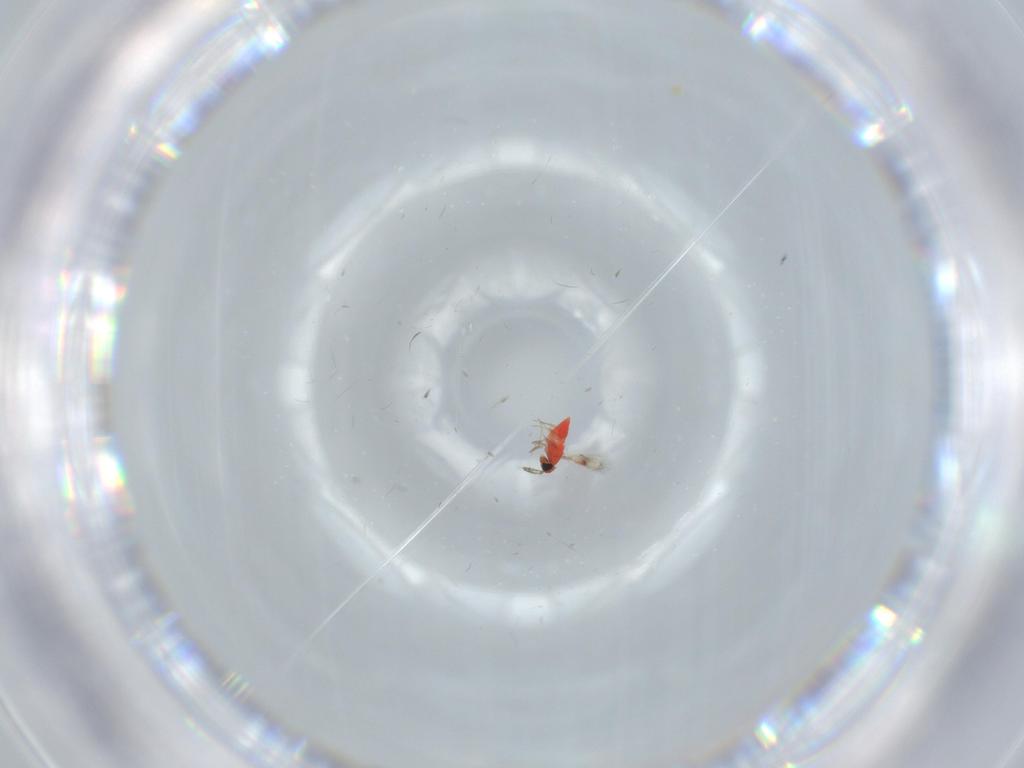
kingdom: Animalia
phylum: Arthropoda
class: Insecta
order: Hymenoptera
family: Trichogrammatidae
